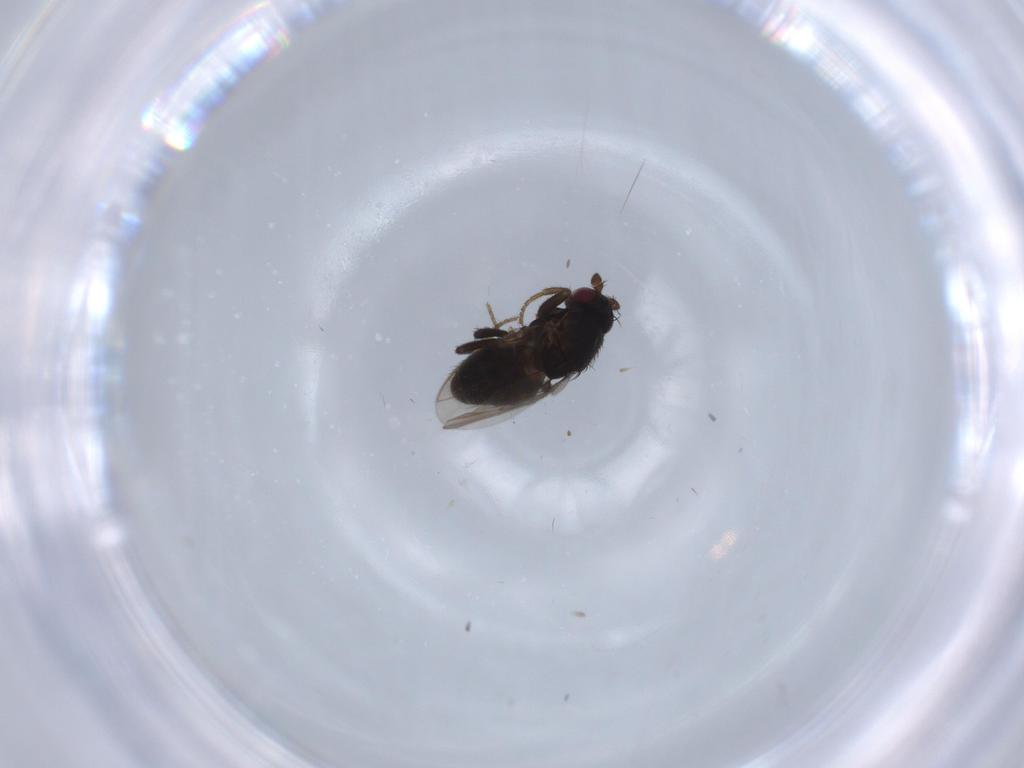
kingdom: Animalia
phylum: Arthropoda
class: Insecta
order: Diptera
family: Sphaeroceridae
